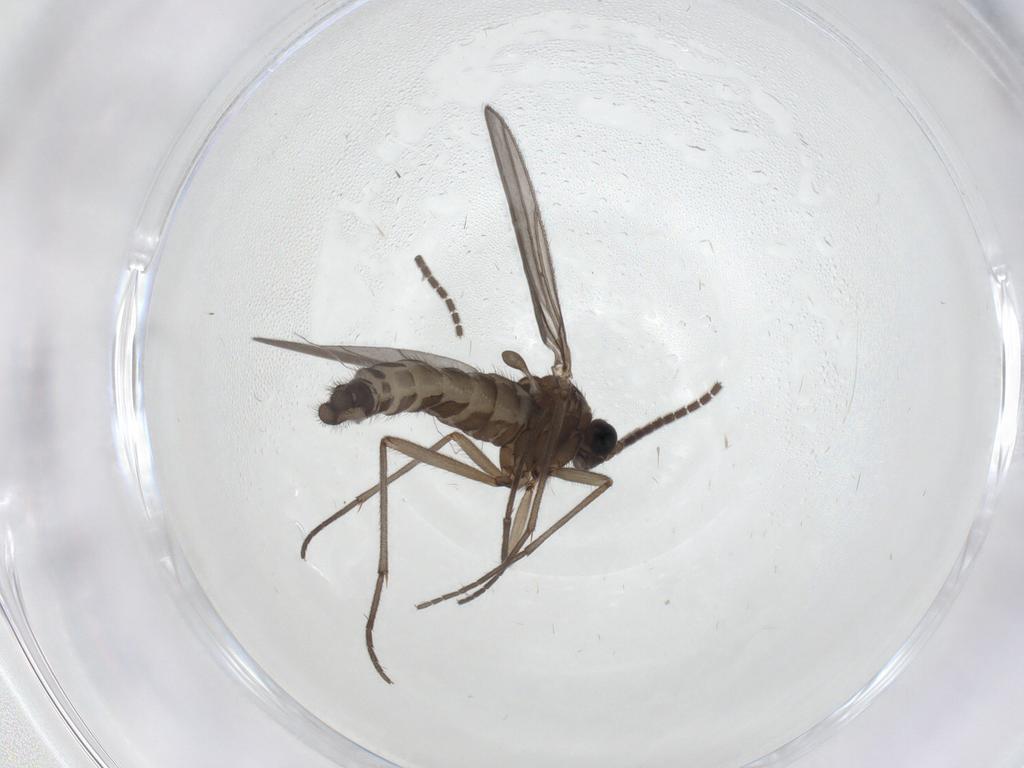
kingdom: Animalia
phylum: Arthropoda
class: Insecta
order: Diptera
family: Sciaridae
